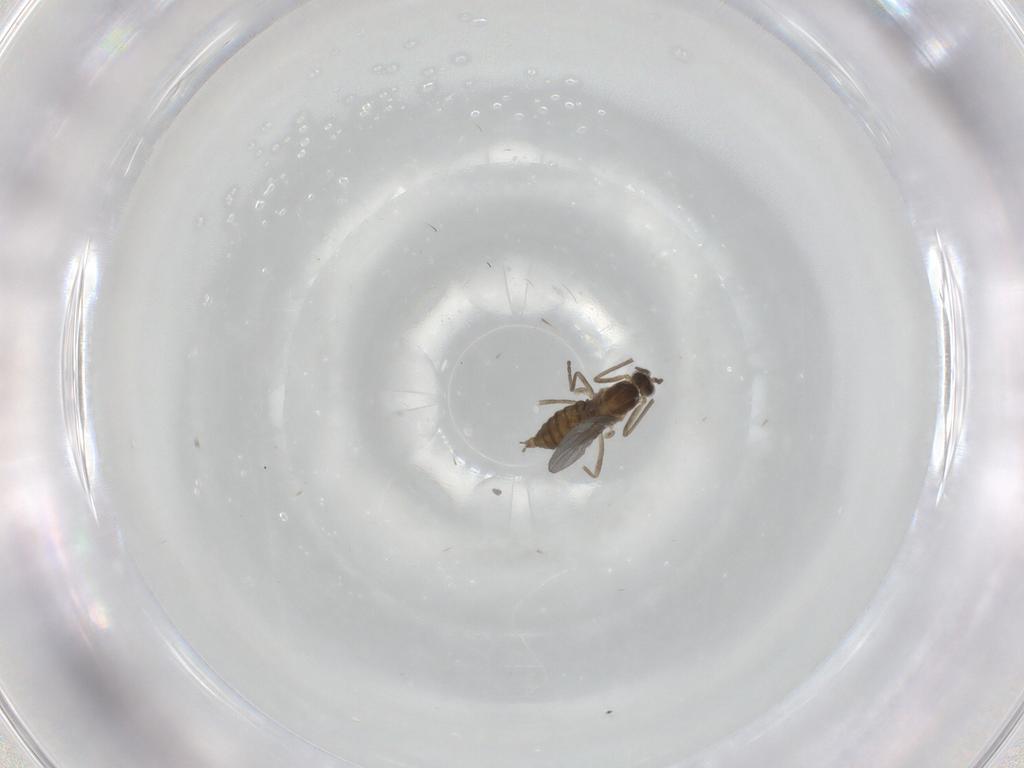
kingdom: Animalia
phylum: Arthropoda
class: Insecta
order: Diptera
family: Cecidomyiidae
